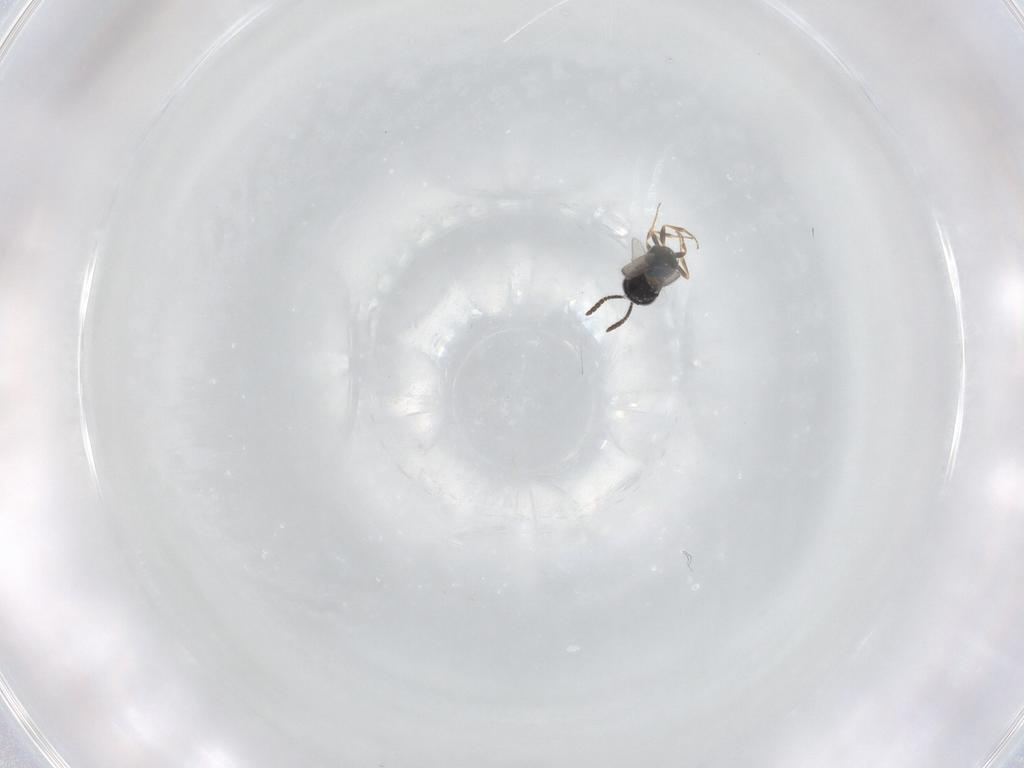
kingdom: Animalia
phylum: Arthropoda
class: Insecta
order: Hymenoptera
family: Scelionidae
